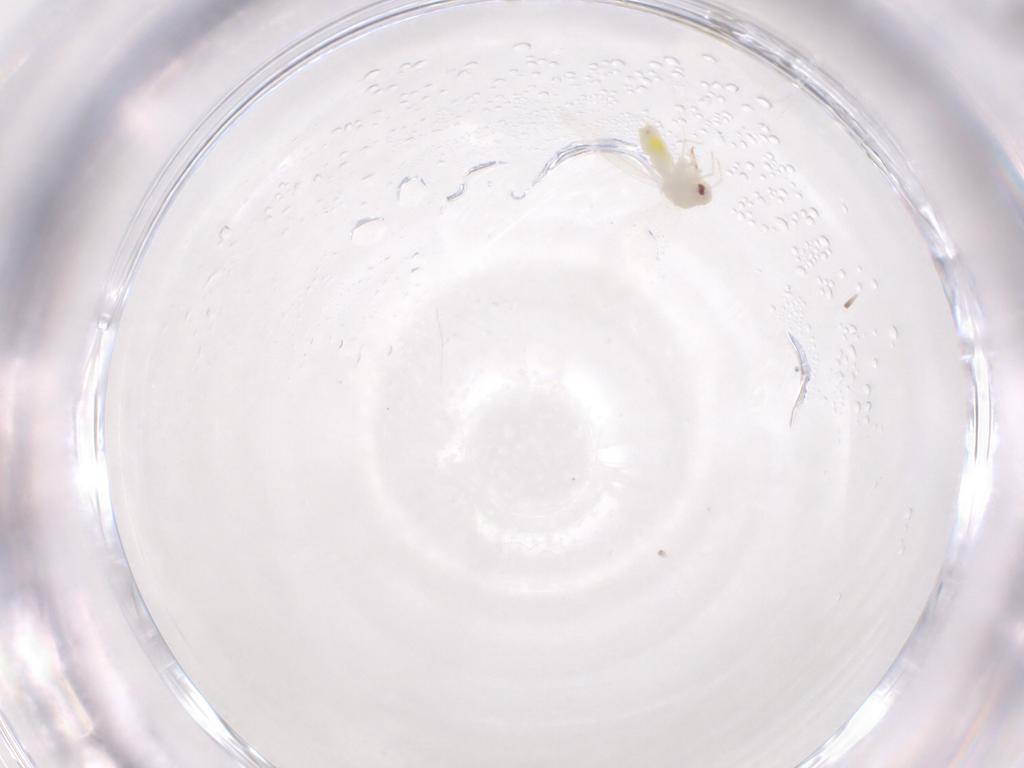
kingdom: Animalia
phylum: Arthropoda
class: Insecta
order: Hemiptera
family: Aleyrodidae
